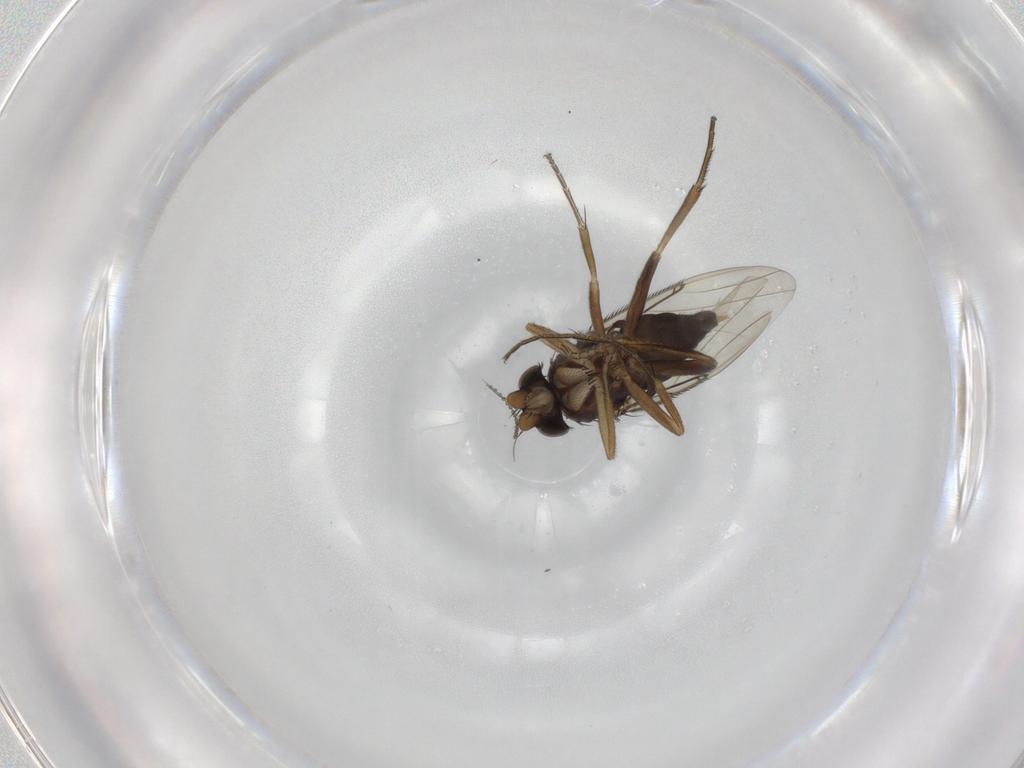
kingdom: Animalia
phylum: Arthropoda
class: Insecta
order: Diptera
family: Phoridae
